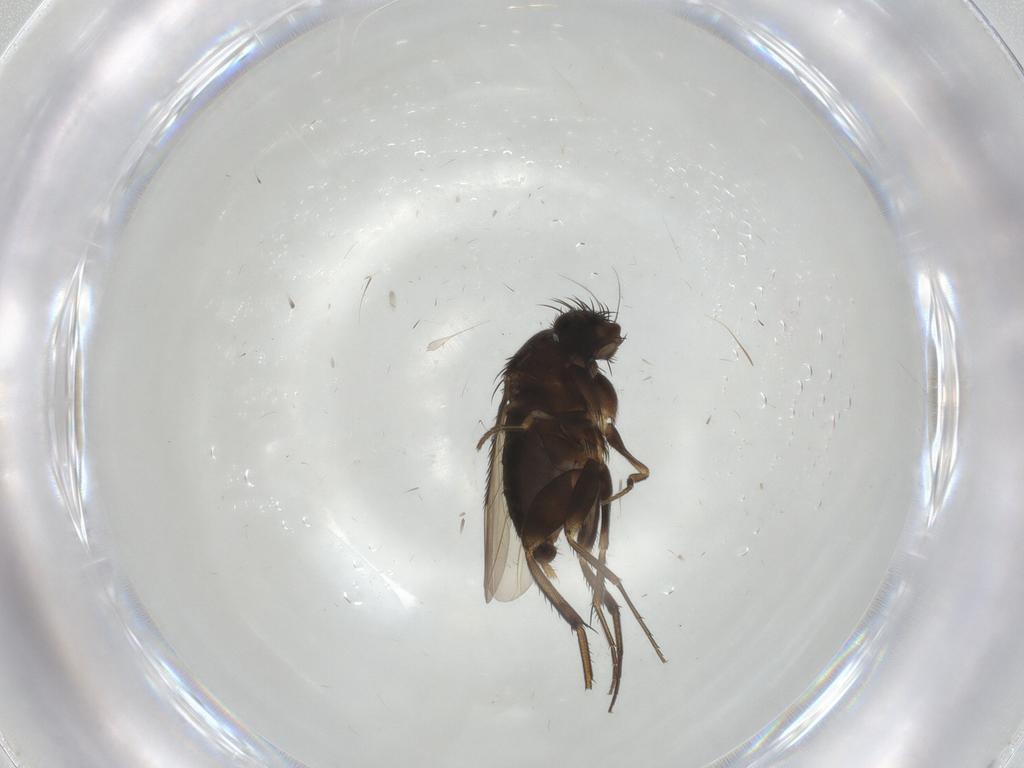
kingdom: Animalia
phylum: Arthropoda
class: Insecta
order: Diptera
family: Phoridae
